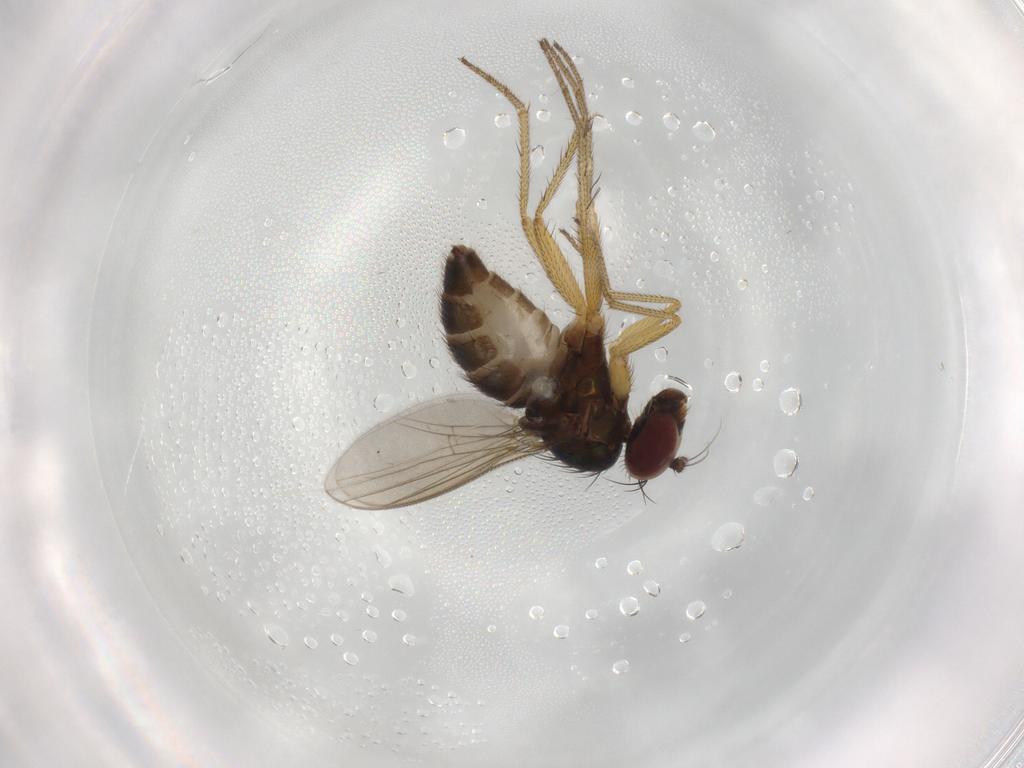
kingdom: Animalia
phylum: Arthropoda
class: Insecta
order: Diptera
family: Dolichopodidae
